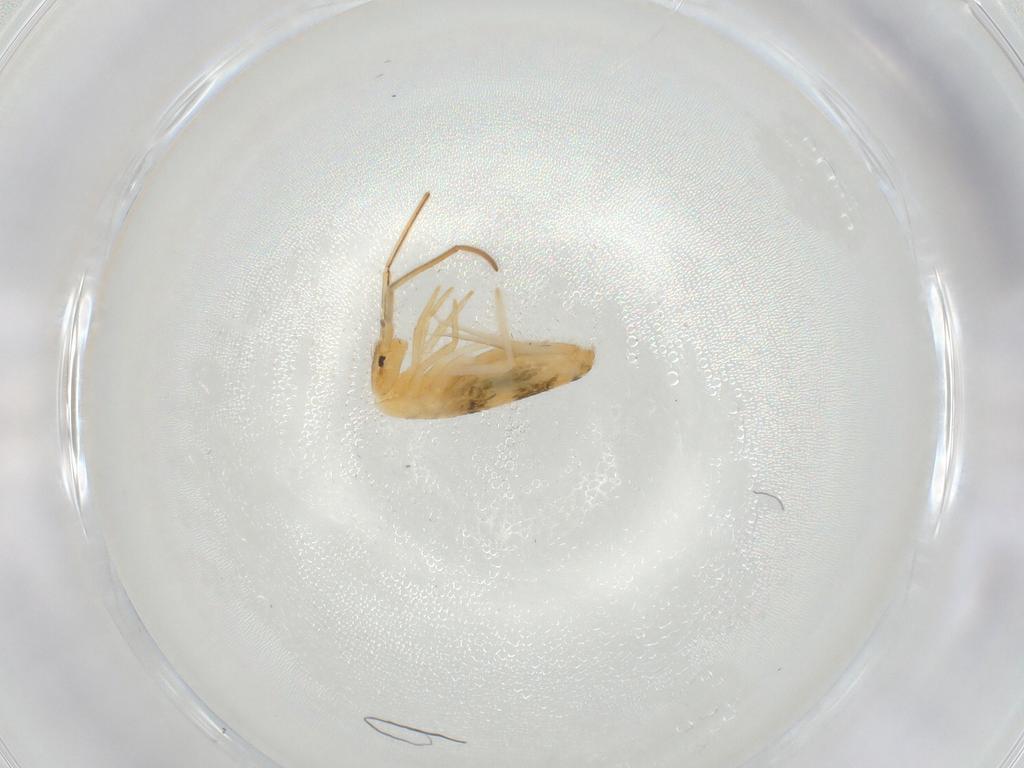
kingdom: Animalia
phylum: Arthropoda
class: Collembola
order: Entomobryomorpha
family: Entomobryidae
